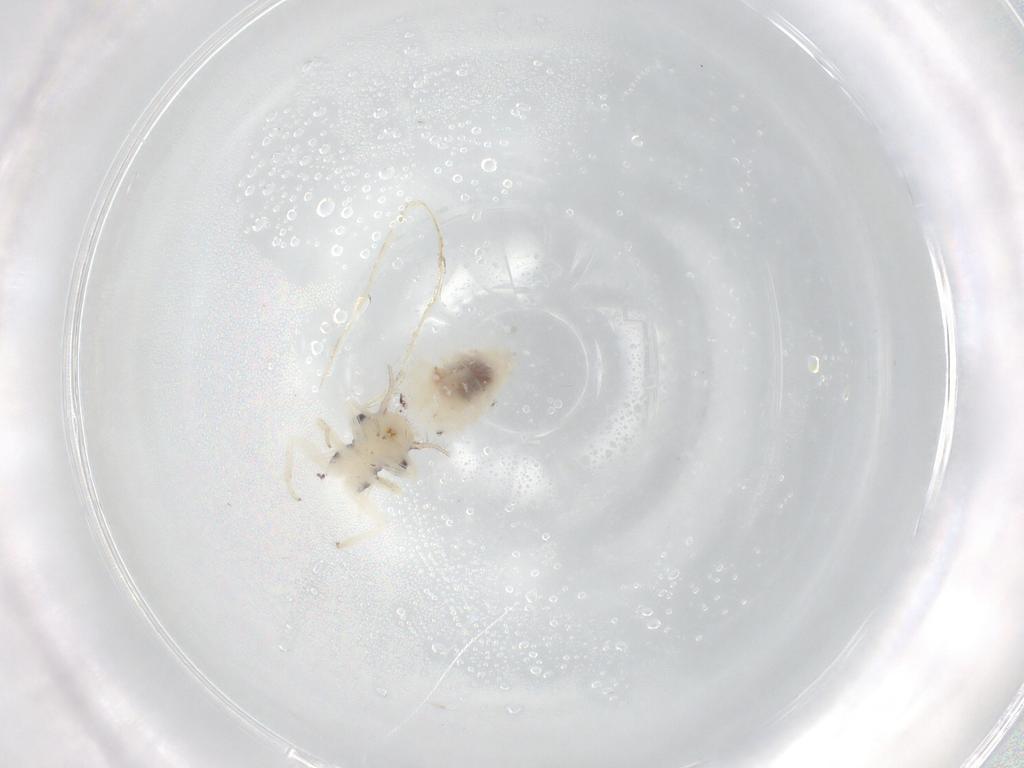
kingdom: Animalia
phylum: Arthropoda
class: Insecta
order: Psocodea
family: Philotarsidae
